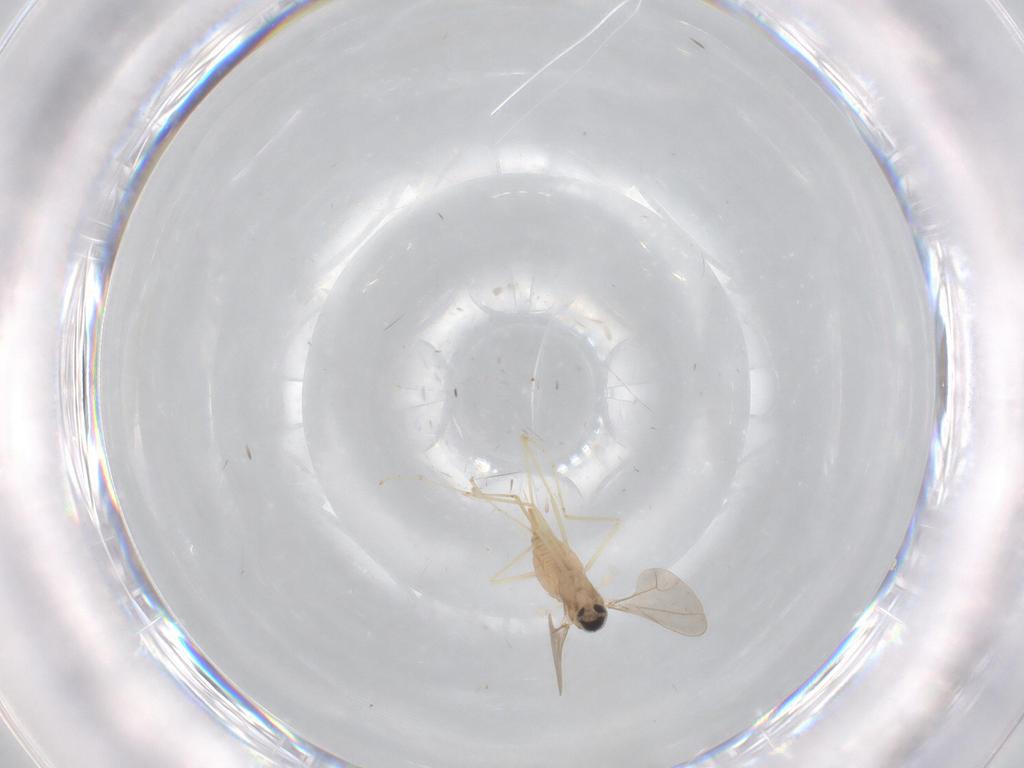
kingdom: Animalia
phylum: Arthropoda
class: Insecta
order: Diptera
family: Cecidomyiidae
